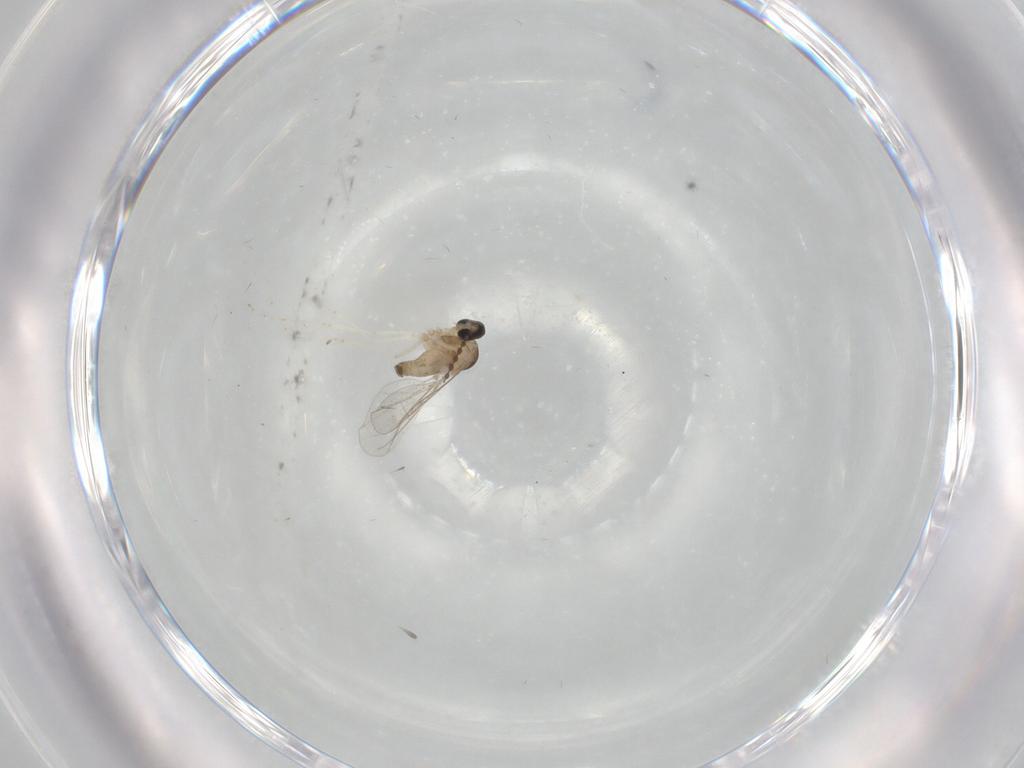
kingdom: Animalia
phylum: Arthropoda
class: Insecta
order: Diptera
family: Cecidomyiidae
